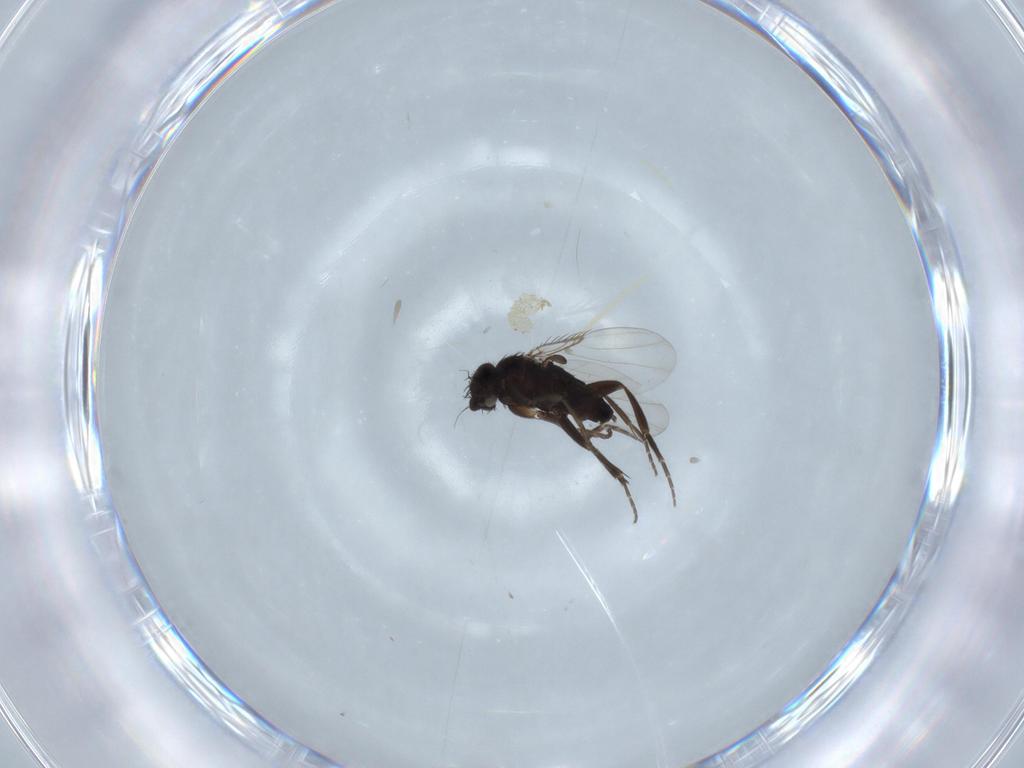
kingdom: Animalia
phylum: Arthropoda
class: Insecta
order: Diptera
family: Phoridae
